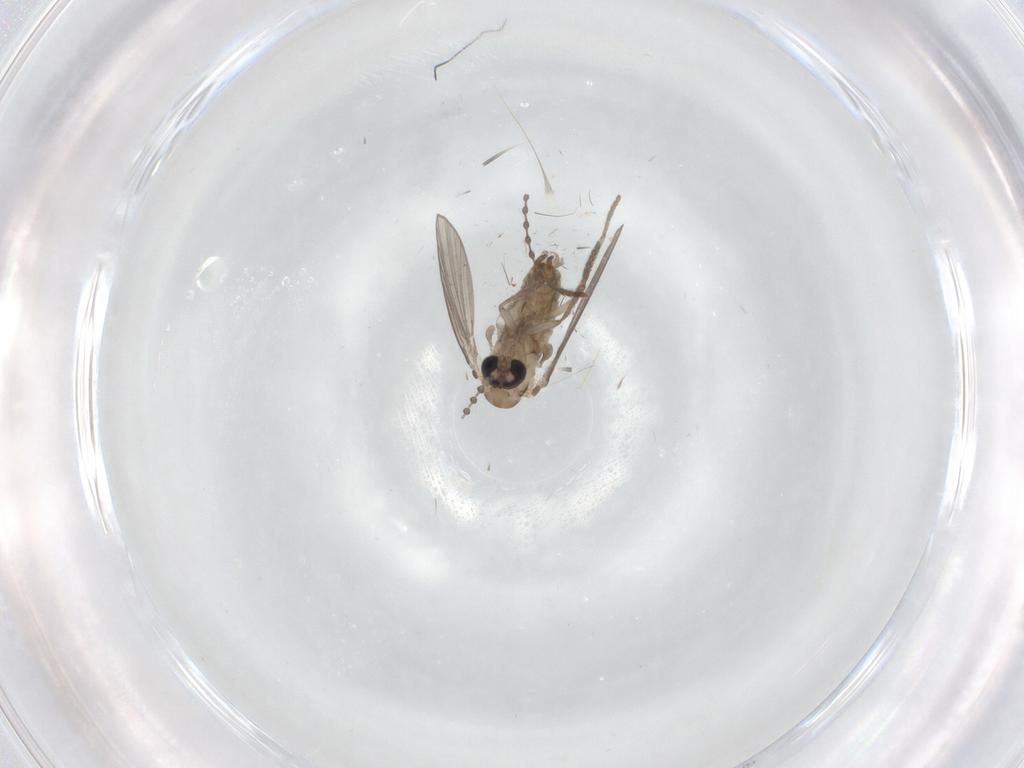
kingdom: Animalia
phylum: Arthropoda
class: Insecta
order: Diptera
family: Psychodidae
